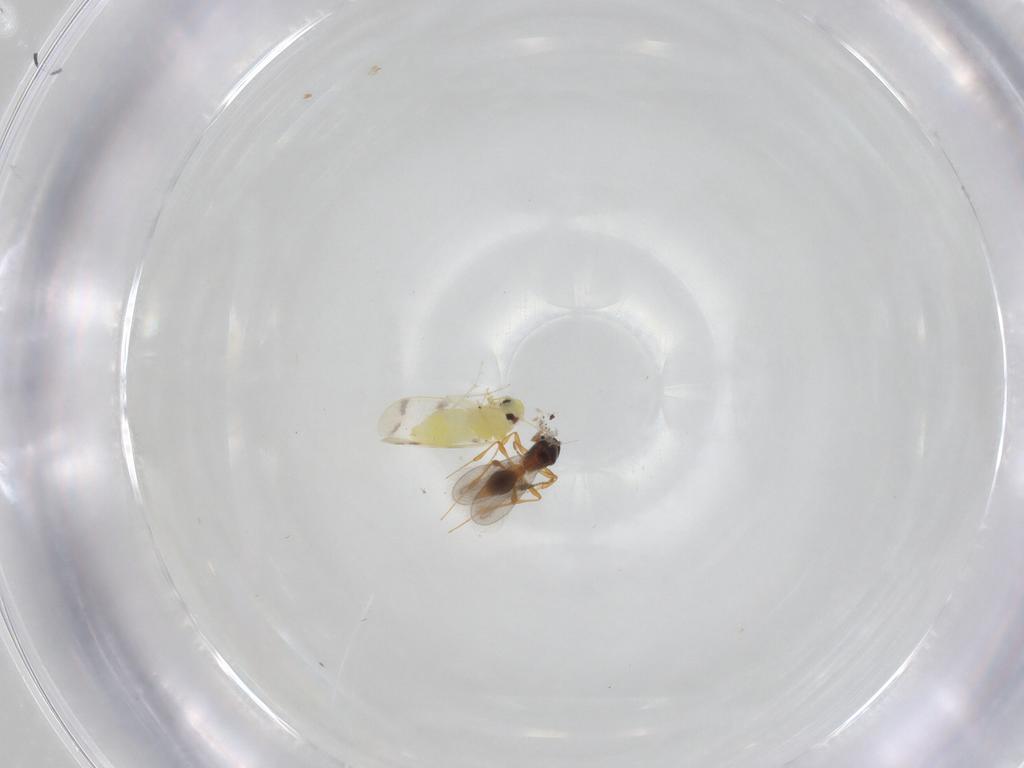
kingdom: Animalia
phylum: Arthropoda
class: Insecta
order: Hymenoptera
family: Platygastridae
